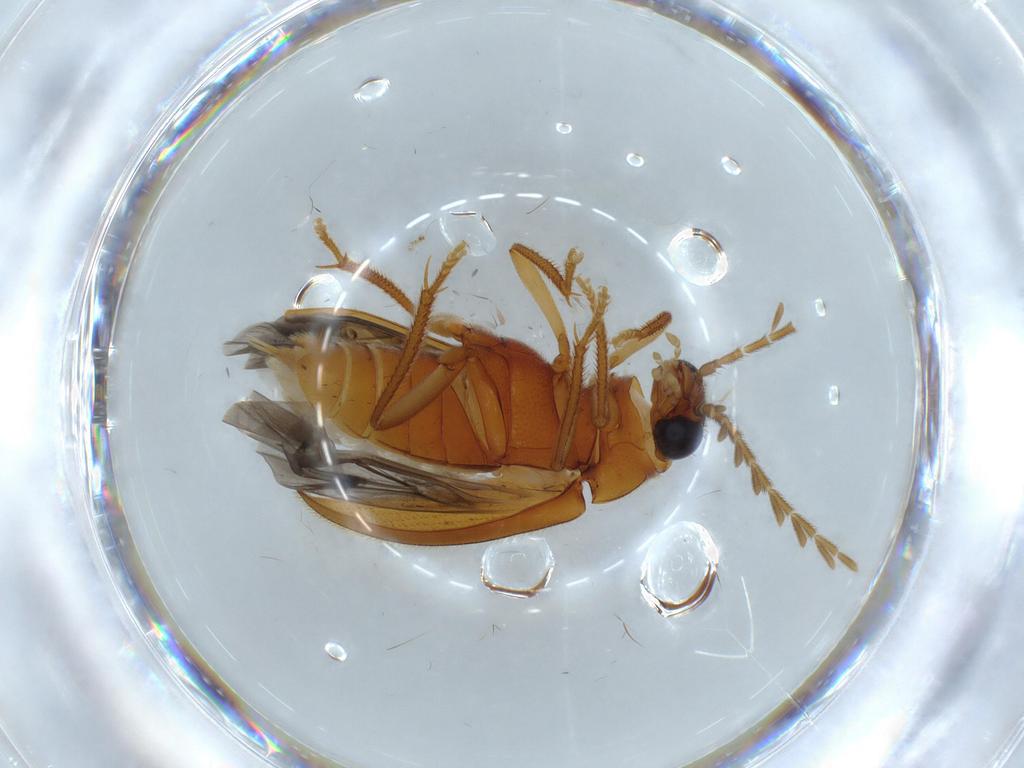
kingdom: Animalia
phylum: Arthropoda
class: Insecta
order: Coleoptera
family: Ptilodactylidae
